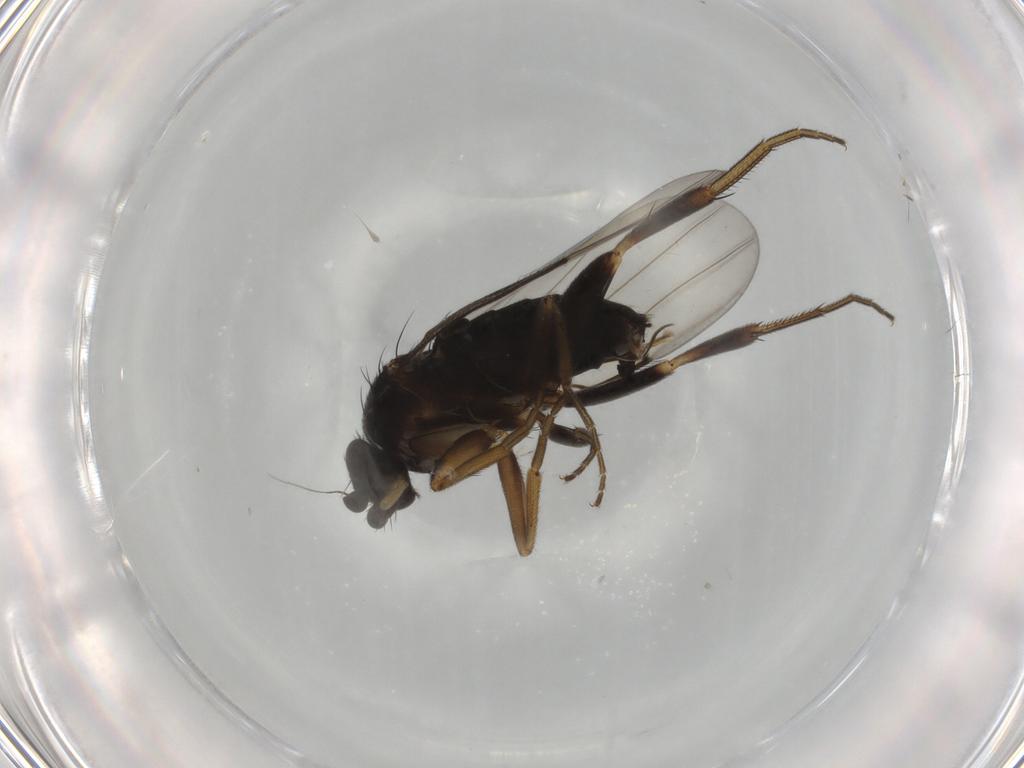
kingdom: Animalia
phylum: Arthropoda
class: Insecta
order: Diptera
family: Phoridae
